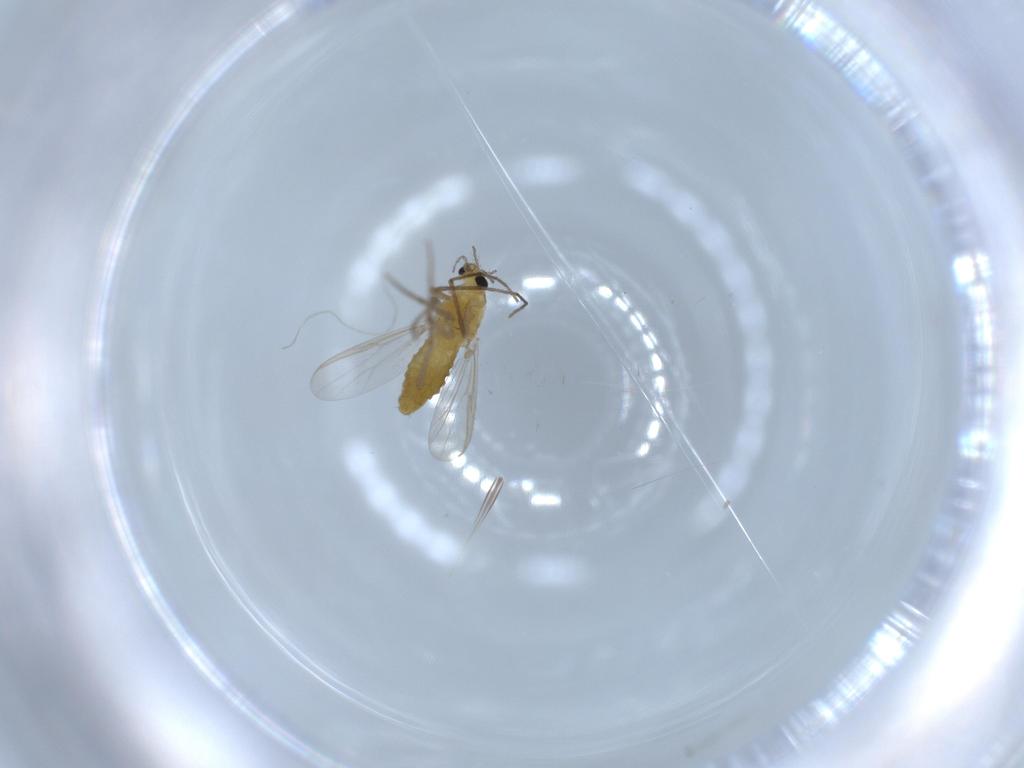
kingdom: Animalia
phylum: Arthropoda
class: Insecta
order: Diptera
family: Chironomidae
